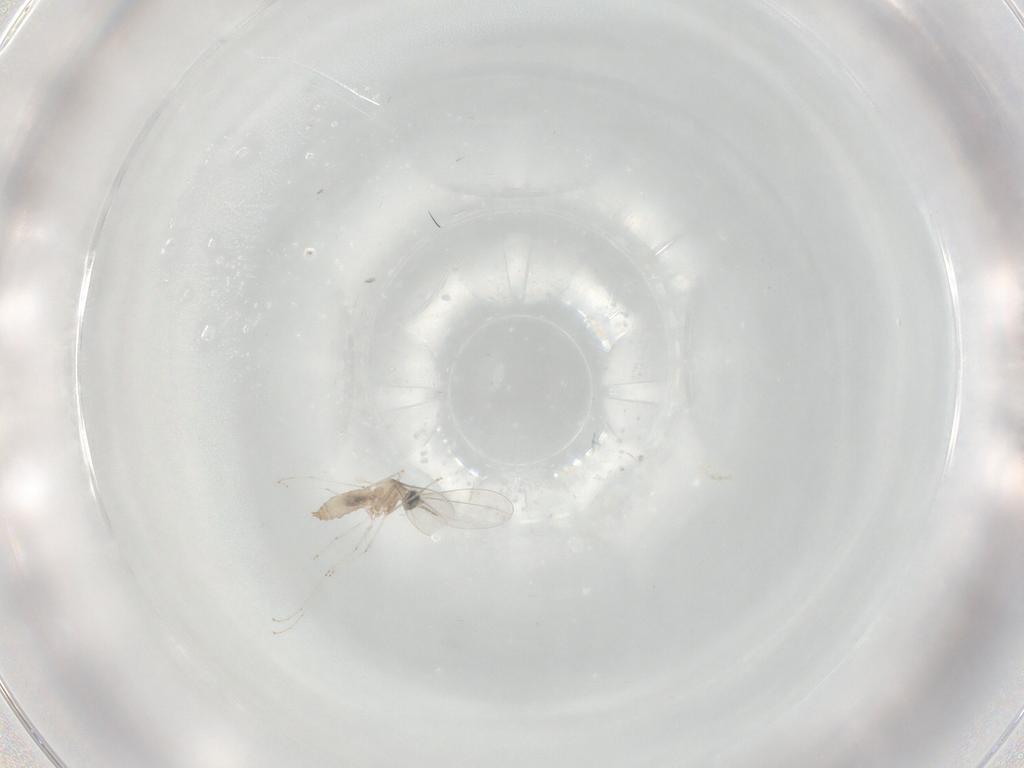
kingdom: Animalia
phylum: Arthropoda
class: Insecta
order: Diptera
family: Cecidomyiidae
